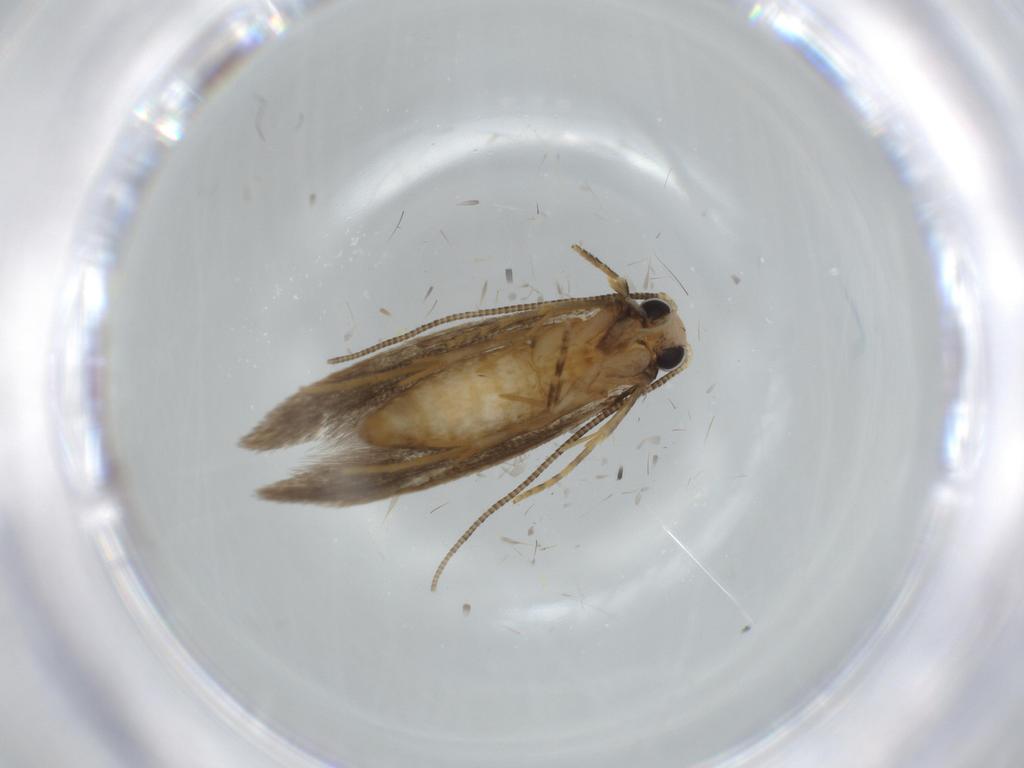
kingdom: Animalia
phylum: Arthropoda
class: Insecta
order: Lepidoptera
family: Tineidae
